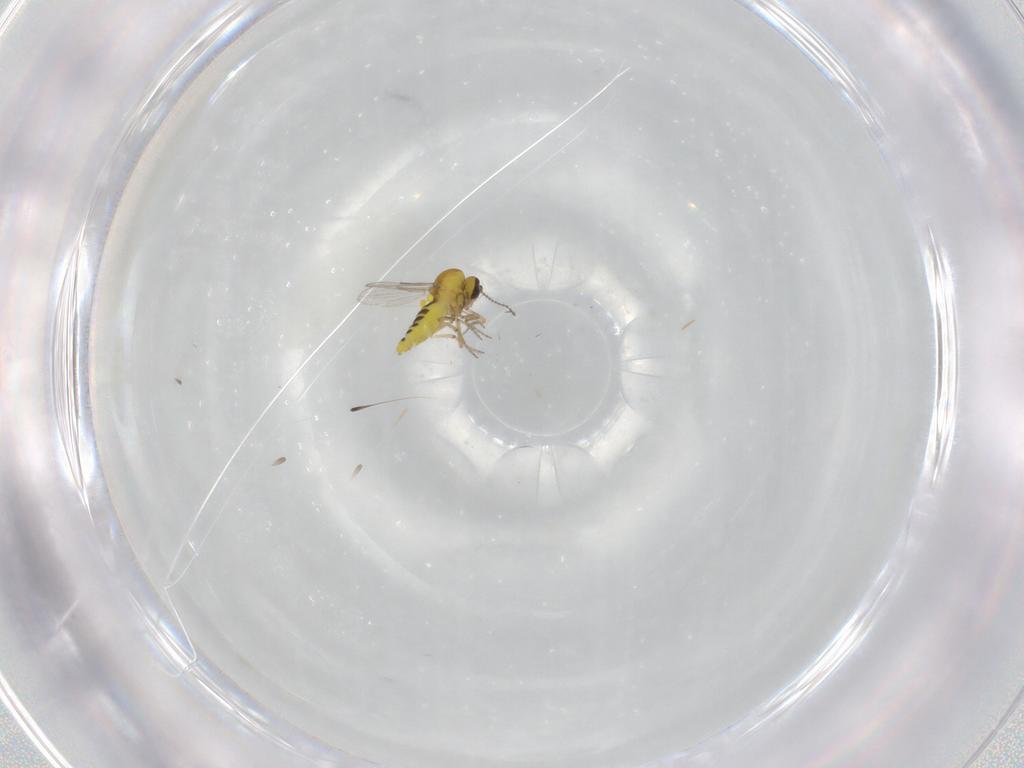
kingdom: Animalia
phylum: Arthropoda
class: Insecta
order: Diptera
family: Ceratopogonidae
